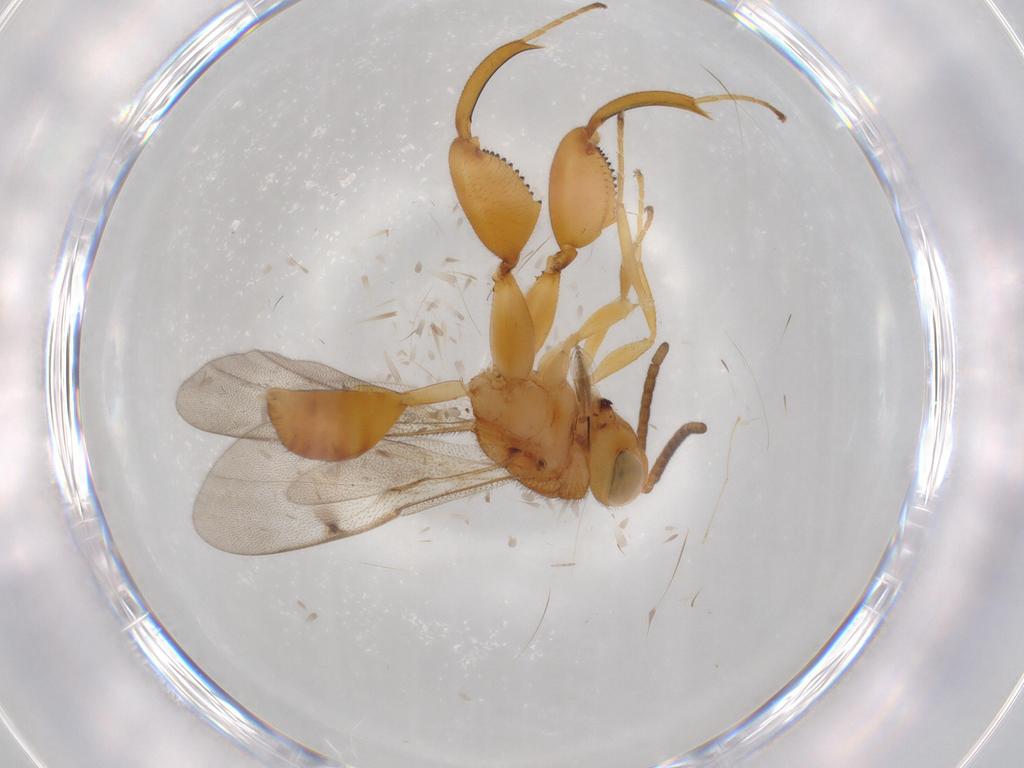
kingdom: Animalia
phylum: Arthropoda
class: Insecta
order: Hymenoptera
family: Chalcididae
